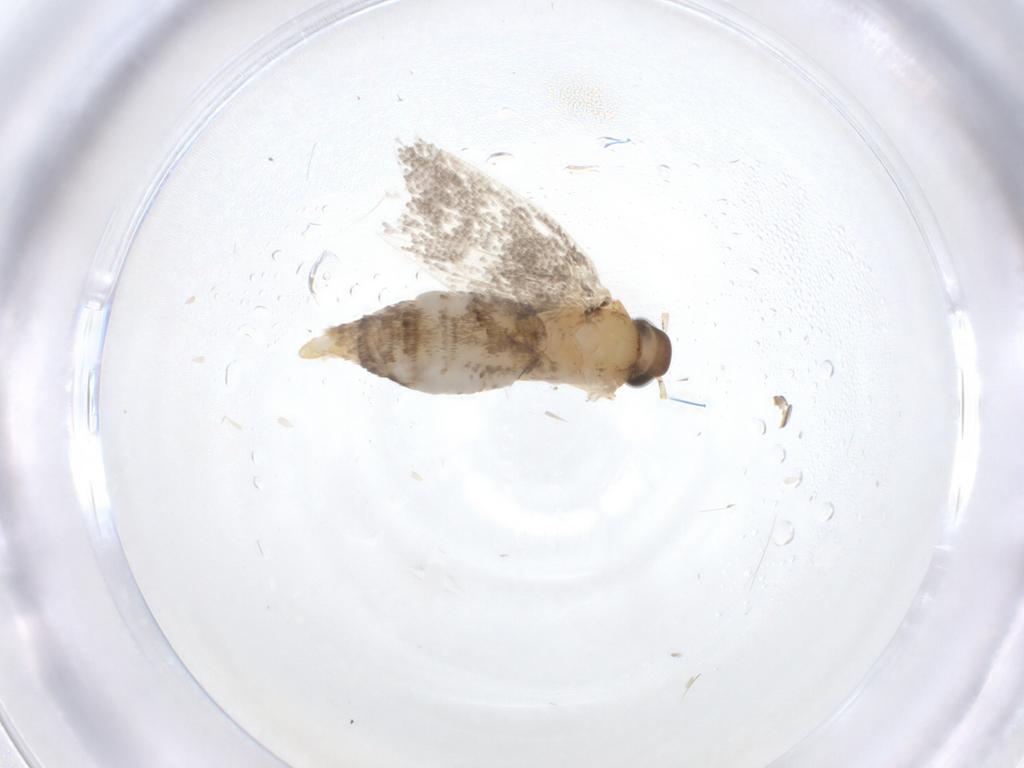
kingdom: Animalia
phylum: Arthropoda
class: Insecta
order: Lepidoptera
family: Oecophoridae
